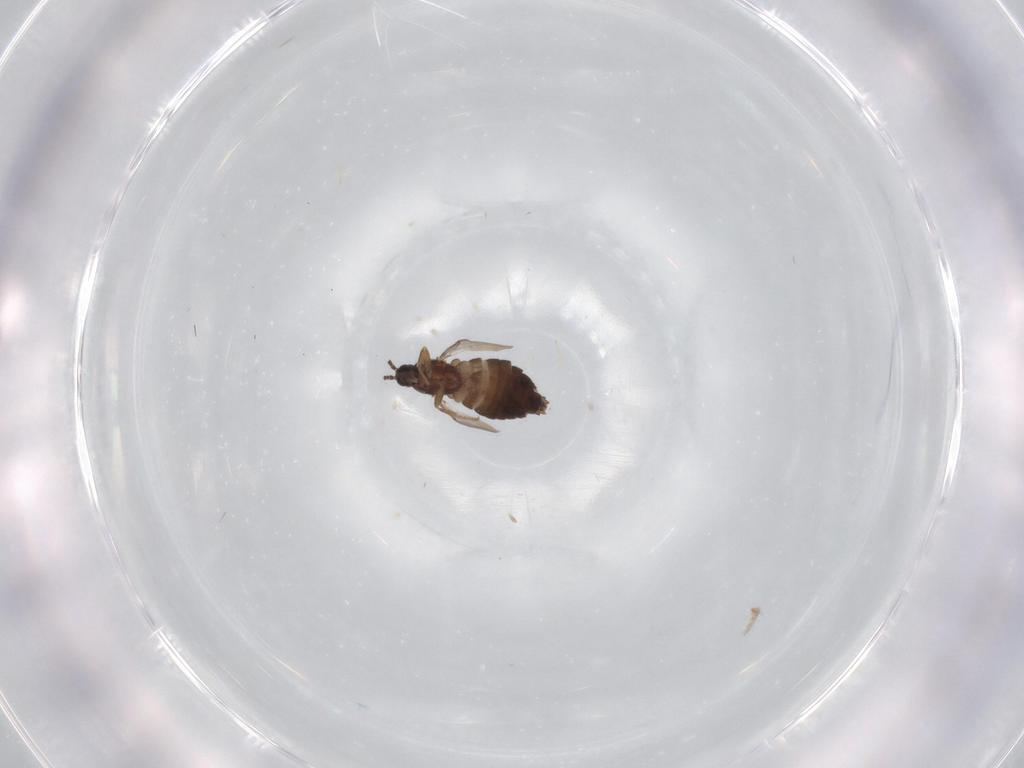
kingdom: Animalia
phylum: Arthropoda
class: Insecta
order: Diptera
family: Scatopsidae
